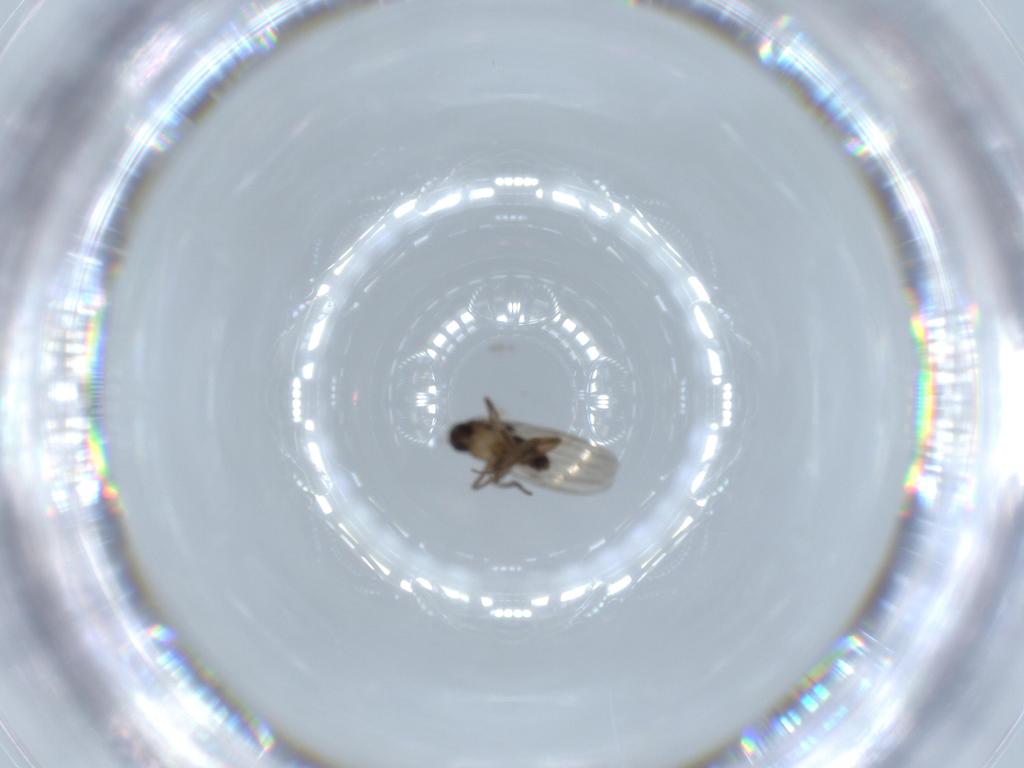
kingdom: Animalia
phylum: Arthropoda
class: Insecta
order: Diptera
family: Phoridae
